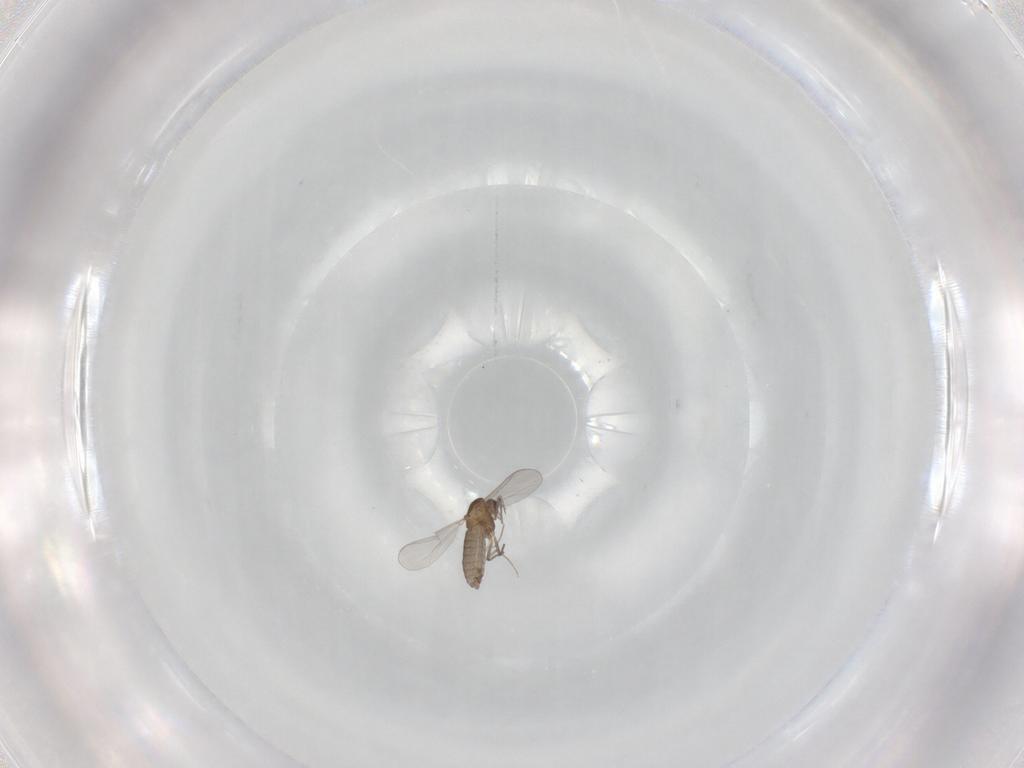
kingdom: Animalia
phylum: Arthropoda
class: Insecta
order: Diptera
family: Chironomidae
